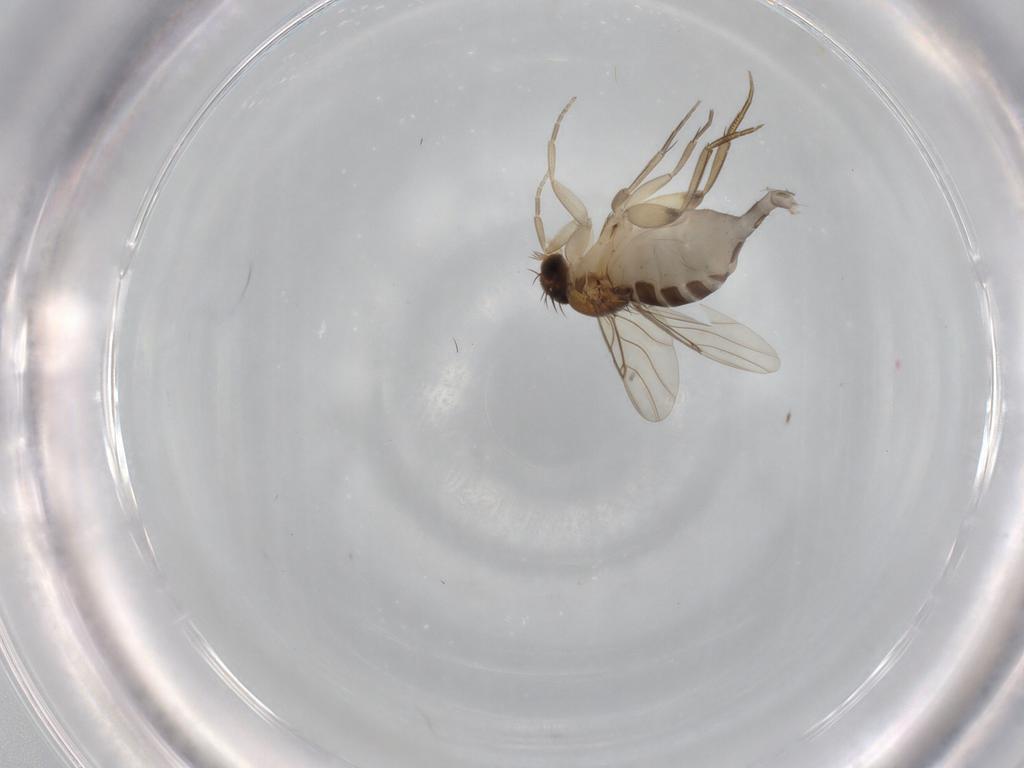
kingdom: Animalia
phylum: Arthropoda
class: Insecta
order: Diptera
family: Phoridae
